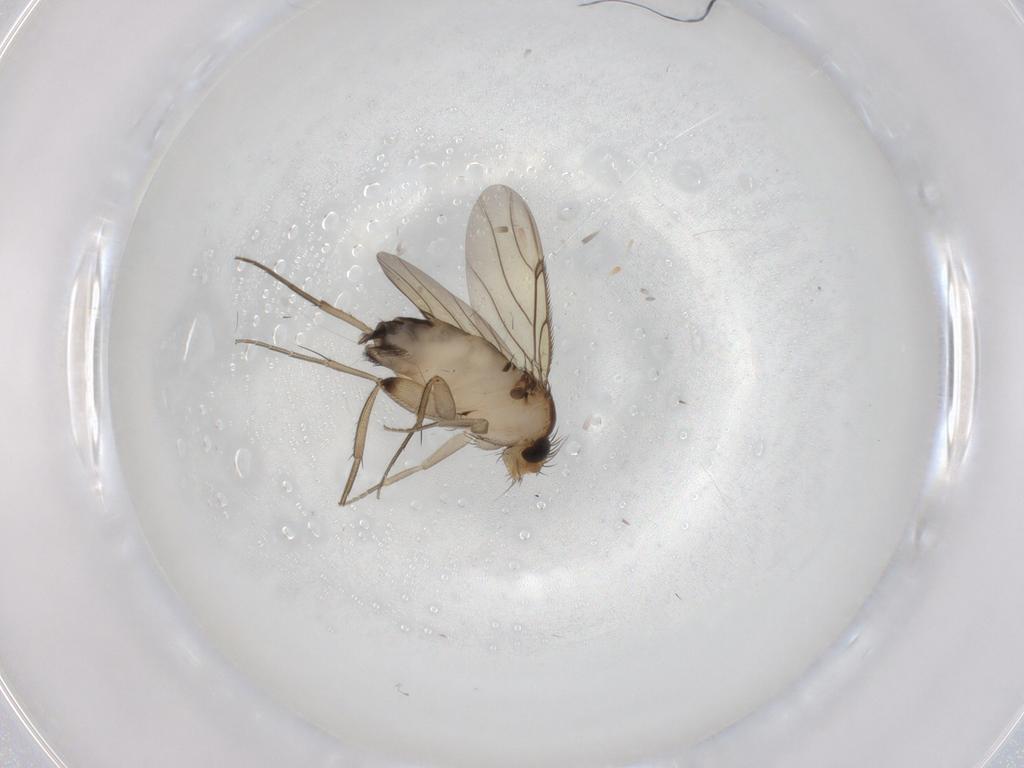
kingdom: Animalia
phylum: Arthropoda
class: Insecta
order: Diptera
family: Phoridae
